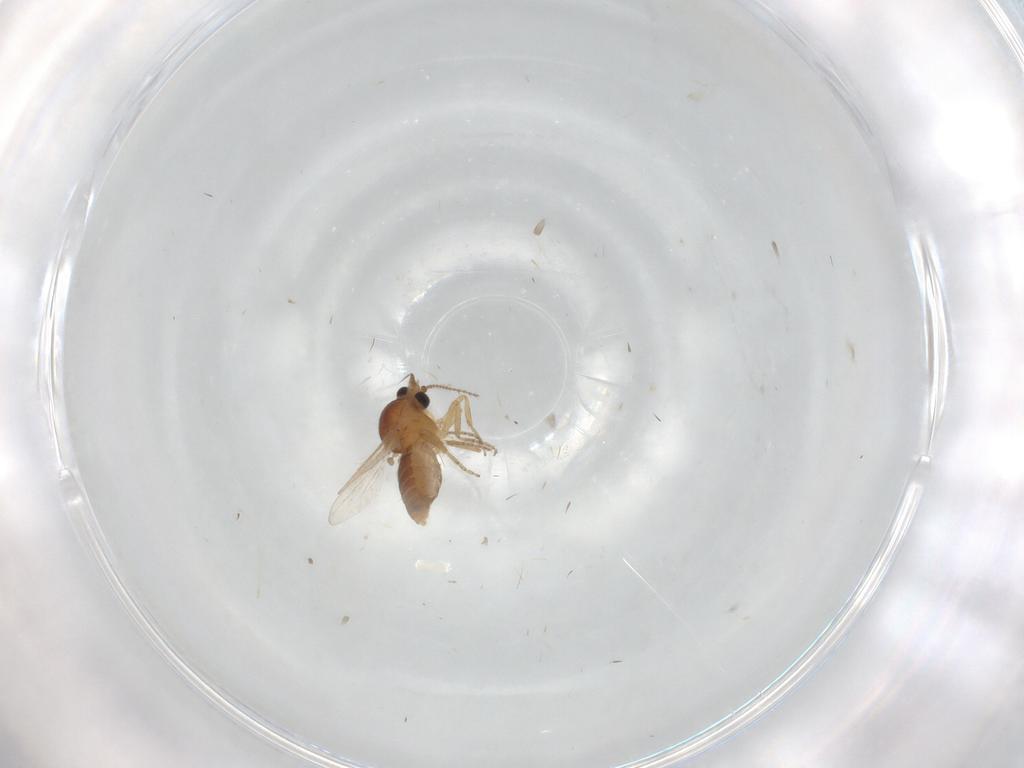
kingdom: Animalia
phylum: Arthropoda
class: Insecta
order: Diptera
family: Ceratopogonidae
